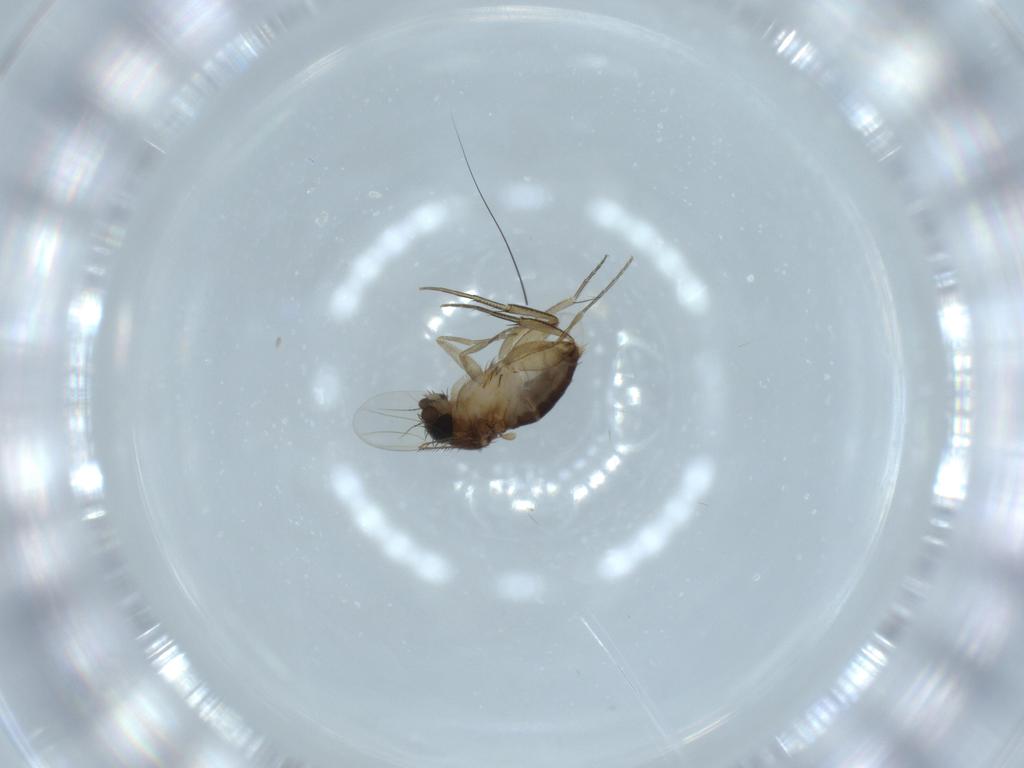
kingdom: Animalia
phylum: Arthropoda
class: Insecta
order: Diptera
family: Phoridae
